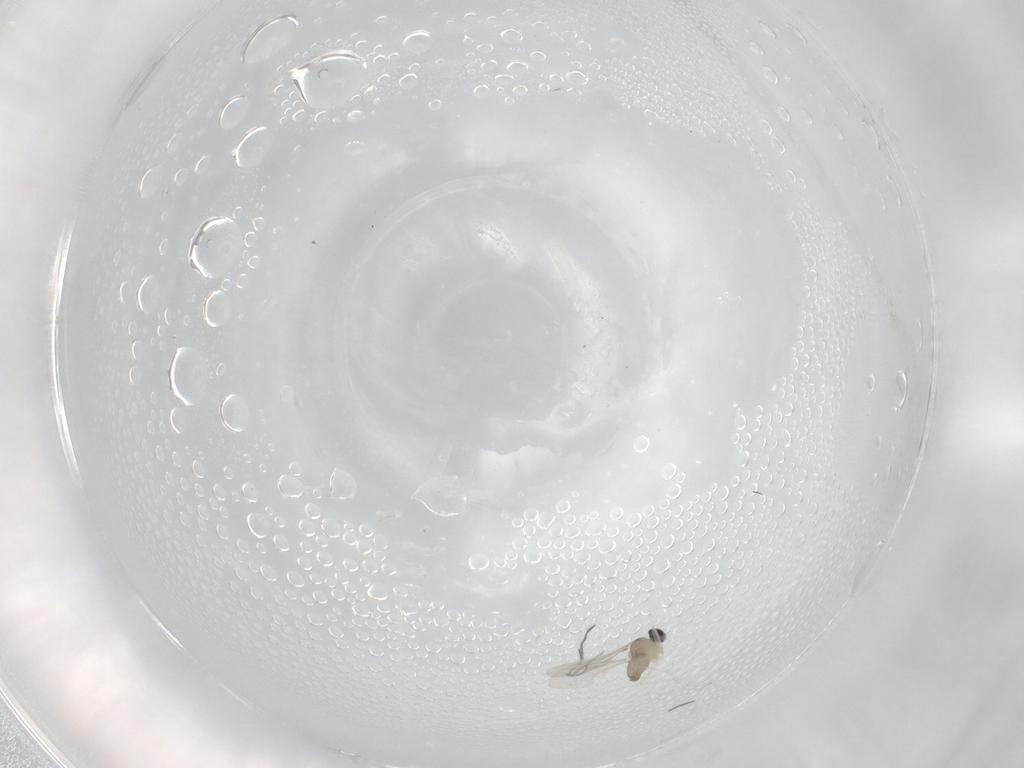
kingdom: Animalia
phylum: Arthropoda
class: Insecta
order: Diptera
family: Cecidomyiidae
